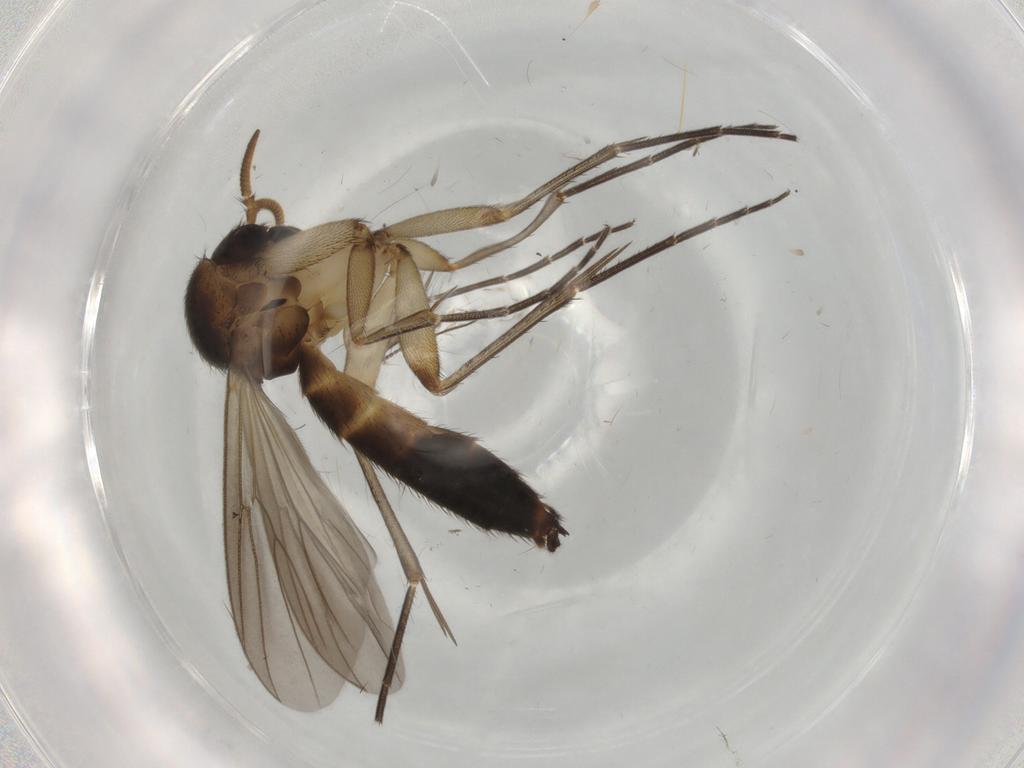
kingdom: Animalia
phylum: Arthropoda
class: Insecta
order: Diptera
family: Mycetophilidae
